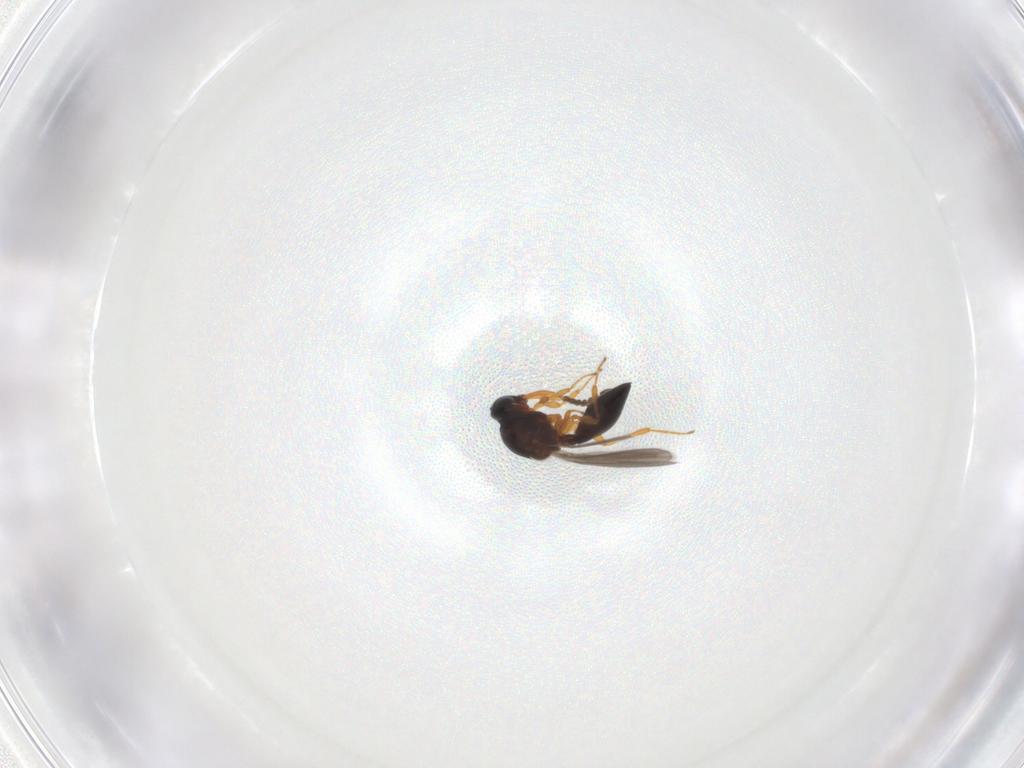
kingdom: Animalia
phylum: Arthropoda
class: Insecta
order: Hymenoptera
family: Platygastridae
